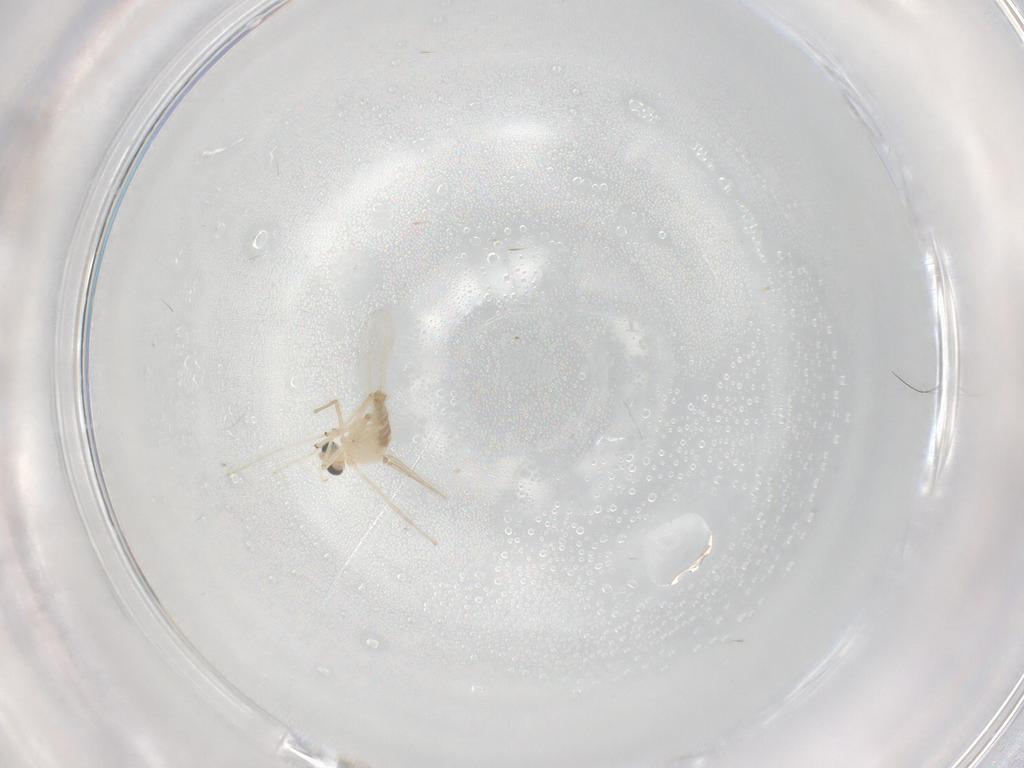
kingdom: Animalia
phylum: Arthropoda
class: Insecta
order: Diptera
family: Chironomidae
